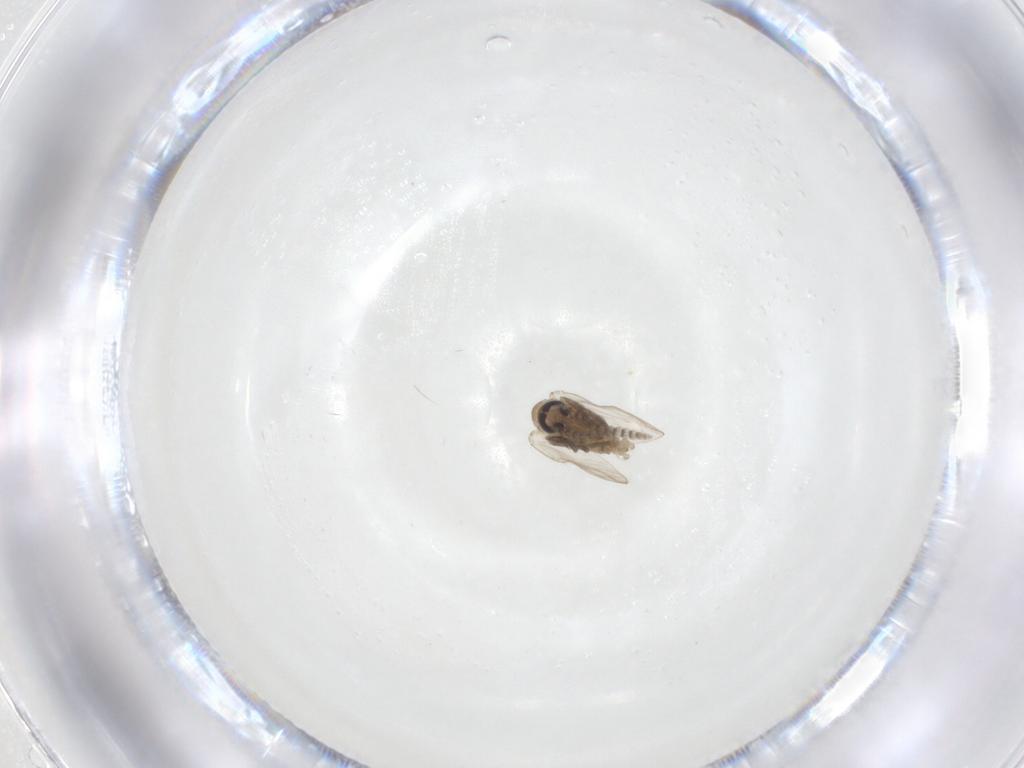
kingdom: Animalia
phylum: Arthropoda
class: Insecta
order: Diptera
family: Psychodidae
